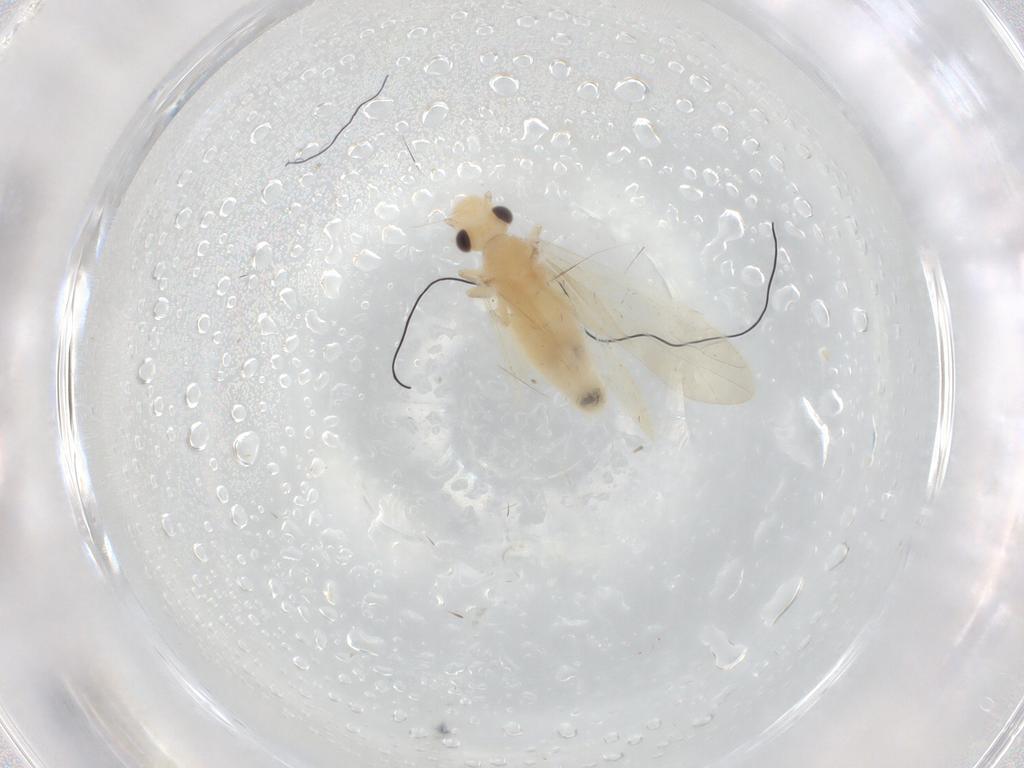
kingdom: Animalia
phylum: Arthropoda
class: Insecta
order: Psocodea
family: Caeciliusidae
